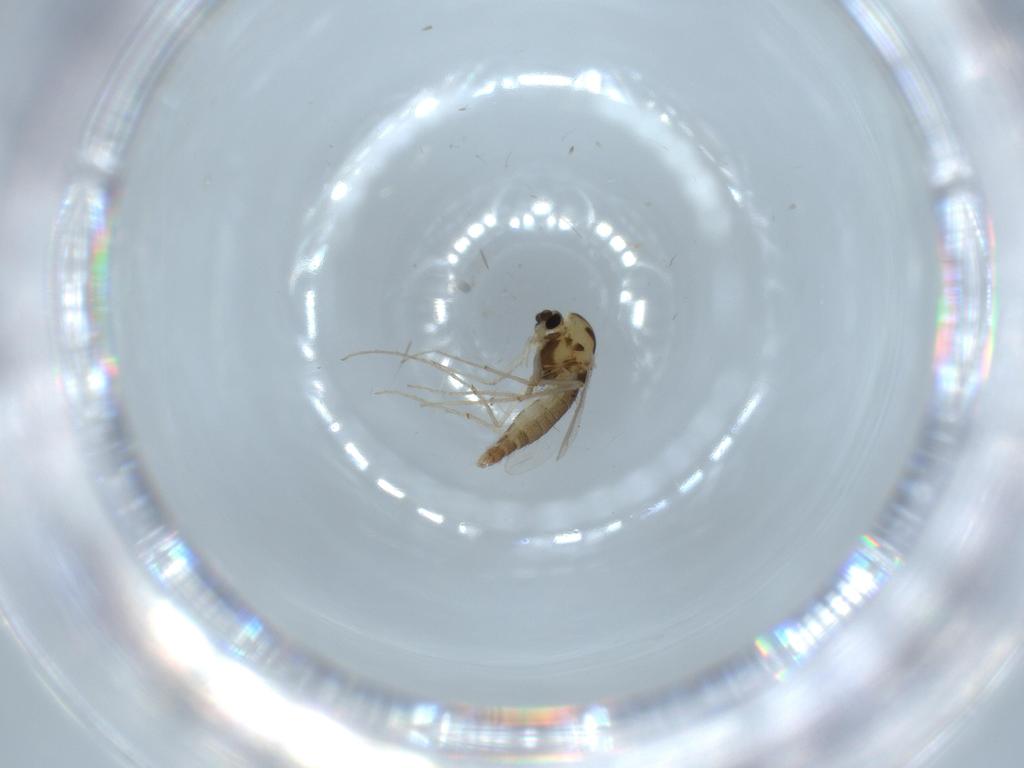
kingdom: Animalia
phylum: Arthropoda
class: Insecta
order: Diptera
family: Chironomidae
